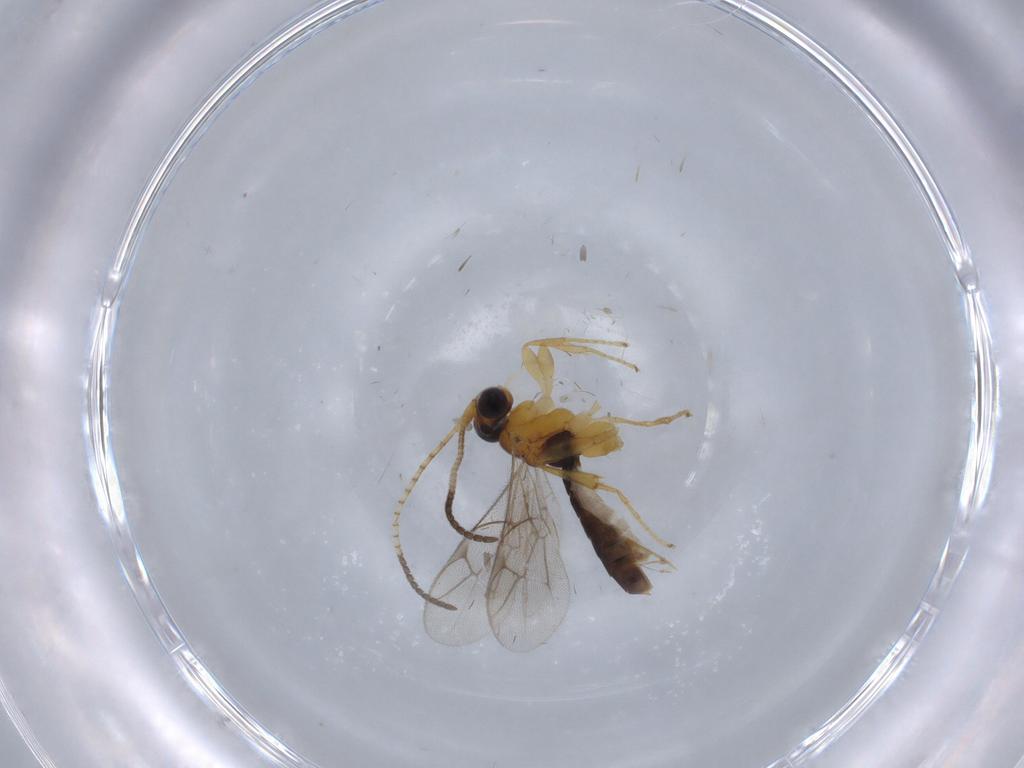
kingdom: Animalia
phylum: Arthropoda
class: Insecta
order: Hymenoptera
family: Ichneumonidae
